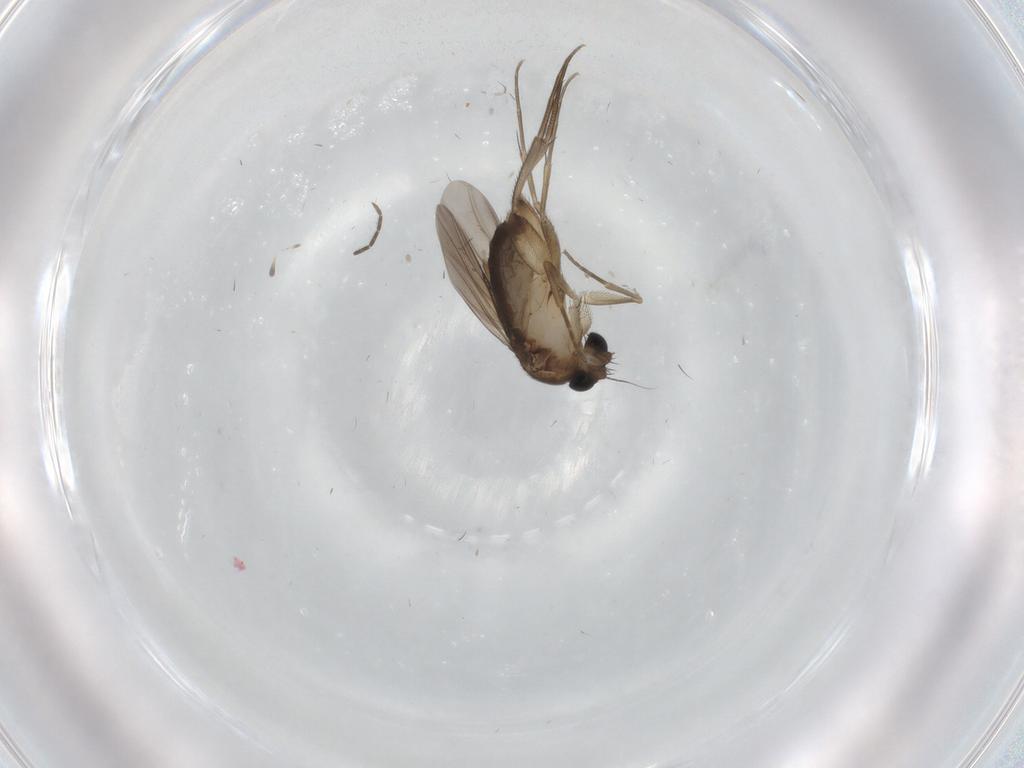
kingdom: Animalia
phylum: Arthropoda
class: Insecta
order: Diptera
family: Phoridae
